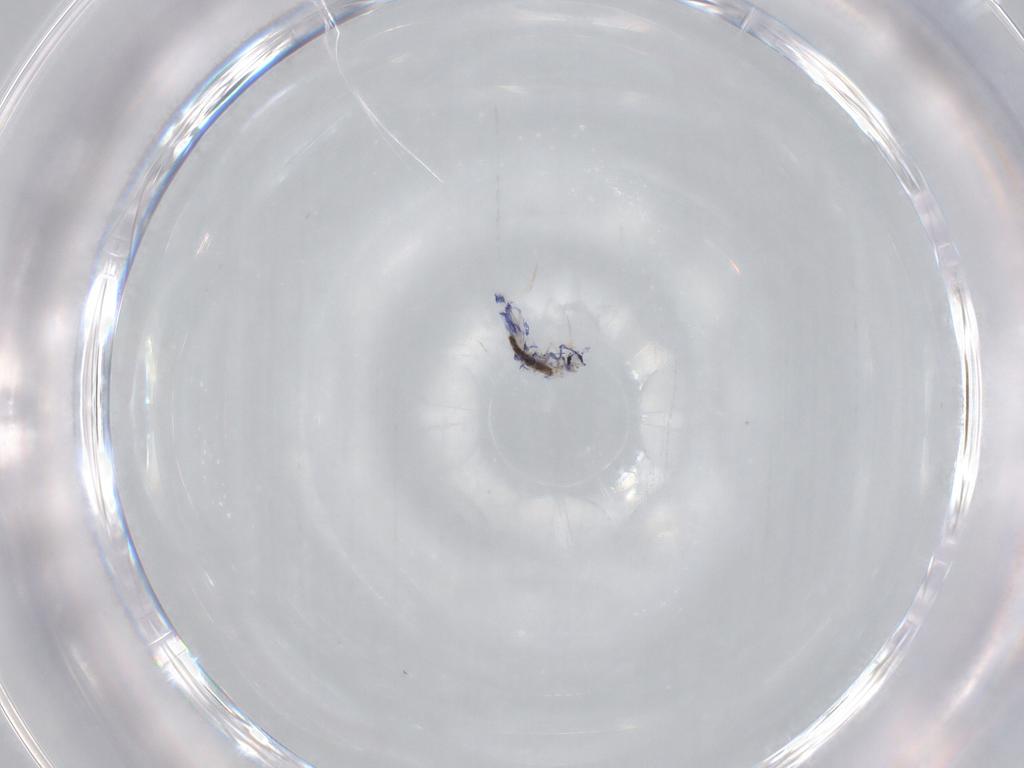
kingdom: Animalia
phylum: Arthropoda
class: Collembola
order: Entomobryomorpha
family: Entomobryidae
